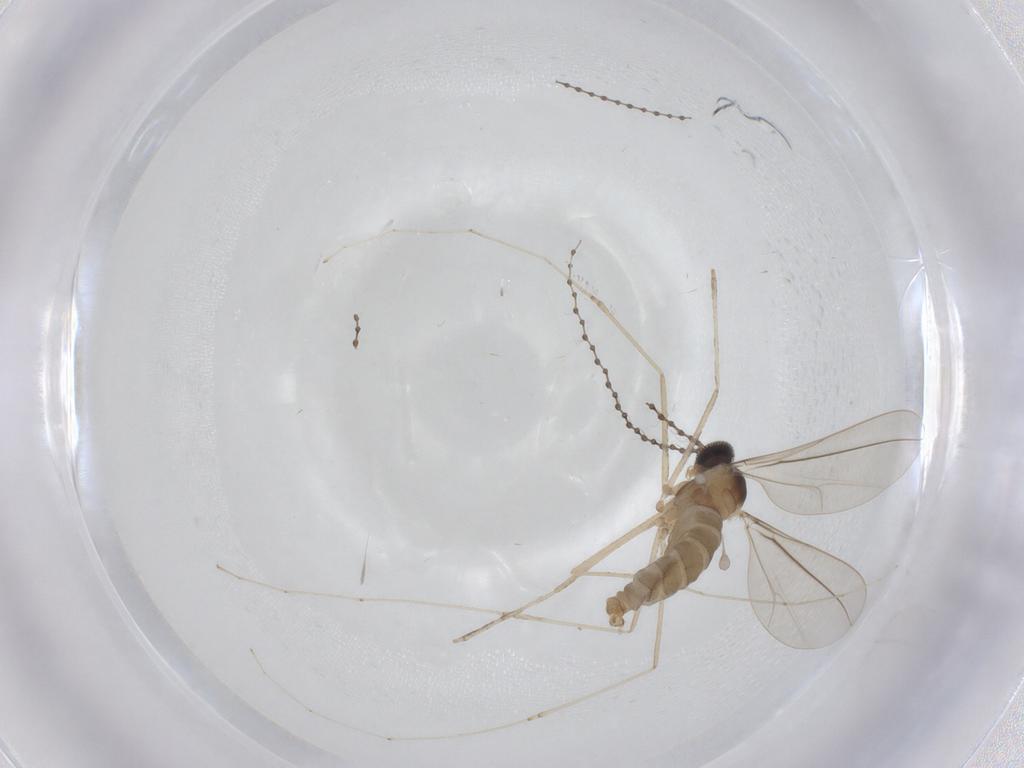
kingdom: Animalia
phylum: Arthropoda
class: Insecta
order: Diptera
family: Cecidomyiidae
